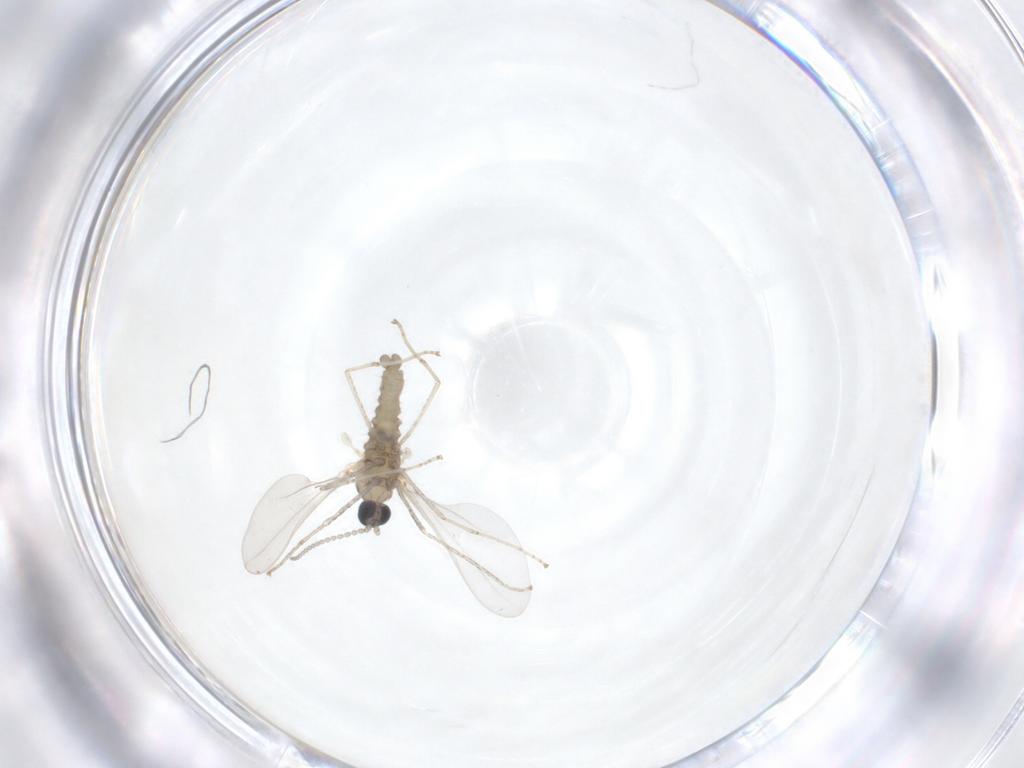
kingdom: Animalia
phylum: Arthropoda
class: Insecta
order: Diptera
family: Cecidomyiidae
